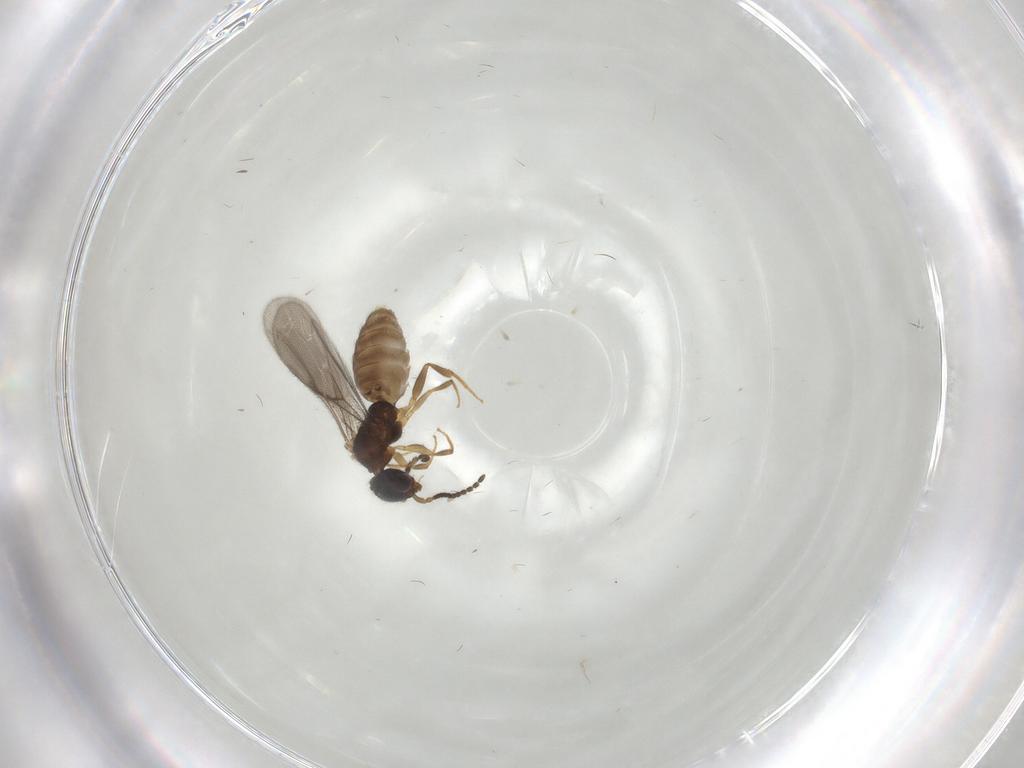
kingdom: Animalia
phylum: Arthropoda
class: Insecta
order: Hymenoptera
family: Bethylidae
